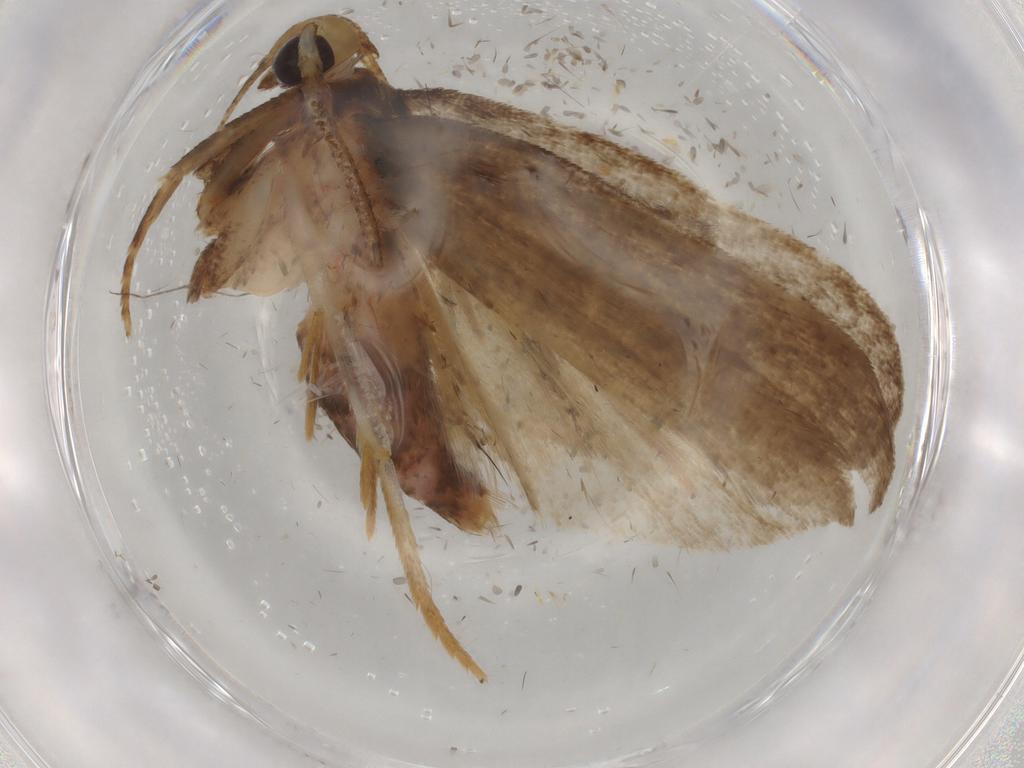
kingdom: Animalia
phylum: Arthropoda
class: Insecta
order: Lepidoptera
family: Autostichidae
